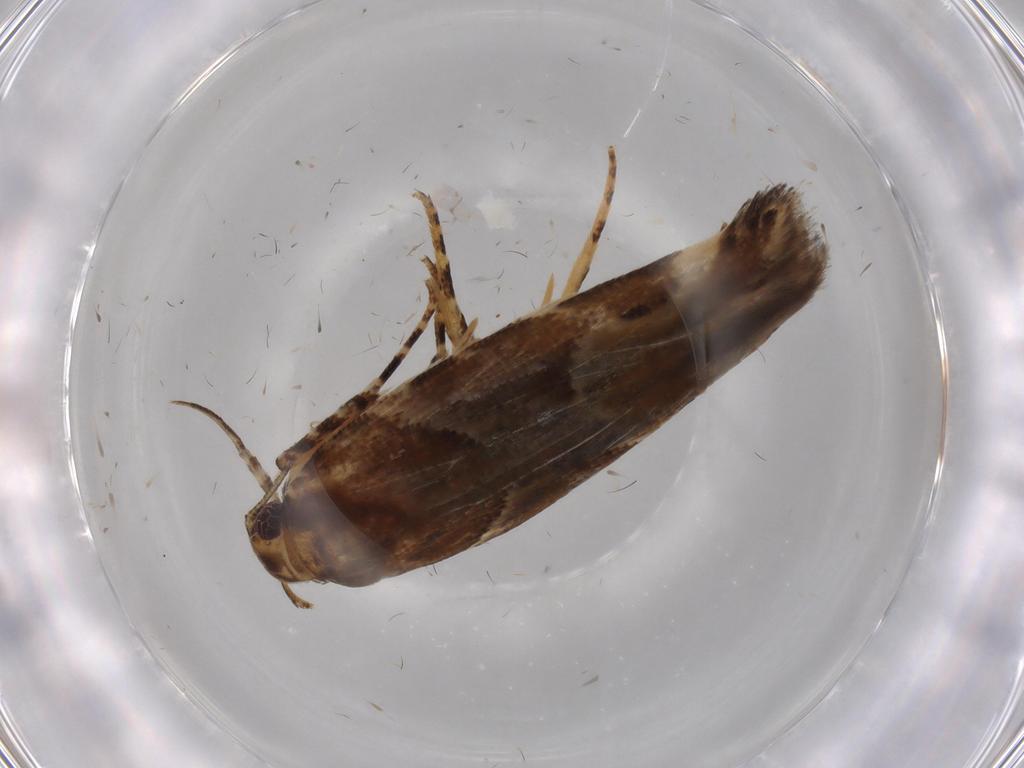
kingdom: Animalia
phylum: Arthropoda
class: Insecta
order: Lepidoptera
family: Gelechiidae
